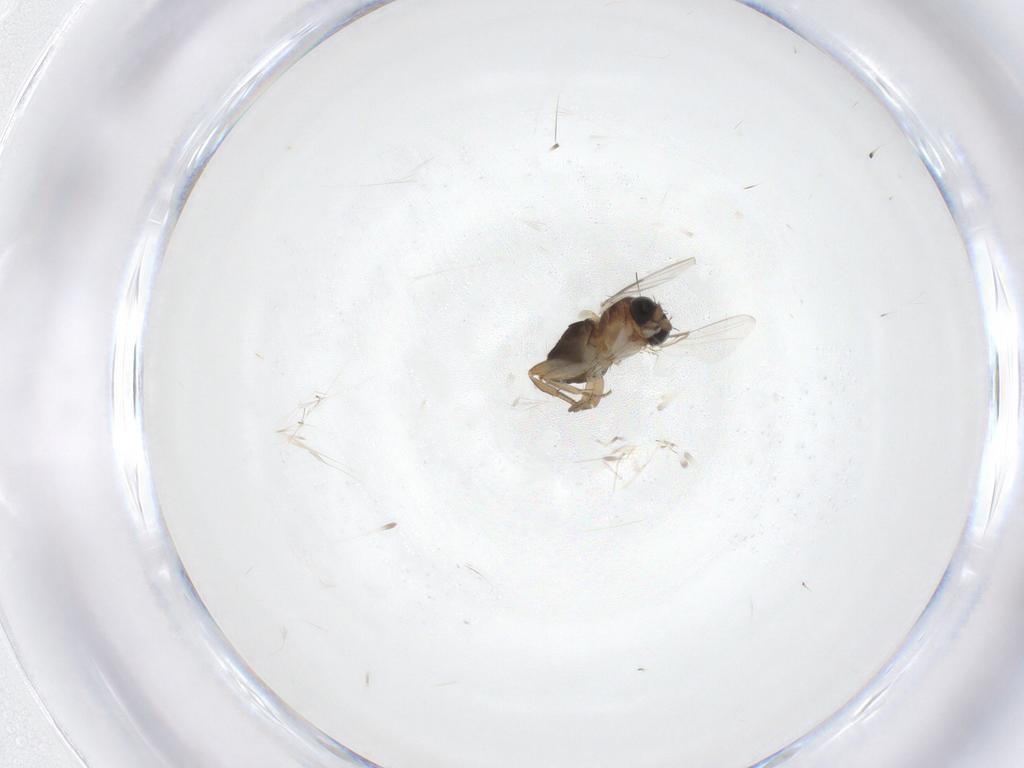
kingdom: Animalia
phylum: Arthropoda
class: Insecta
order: Diptera
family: Cecidomyiidae
